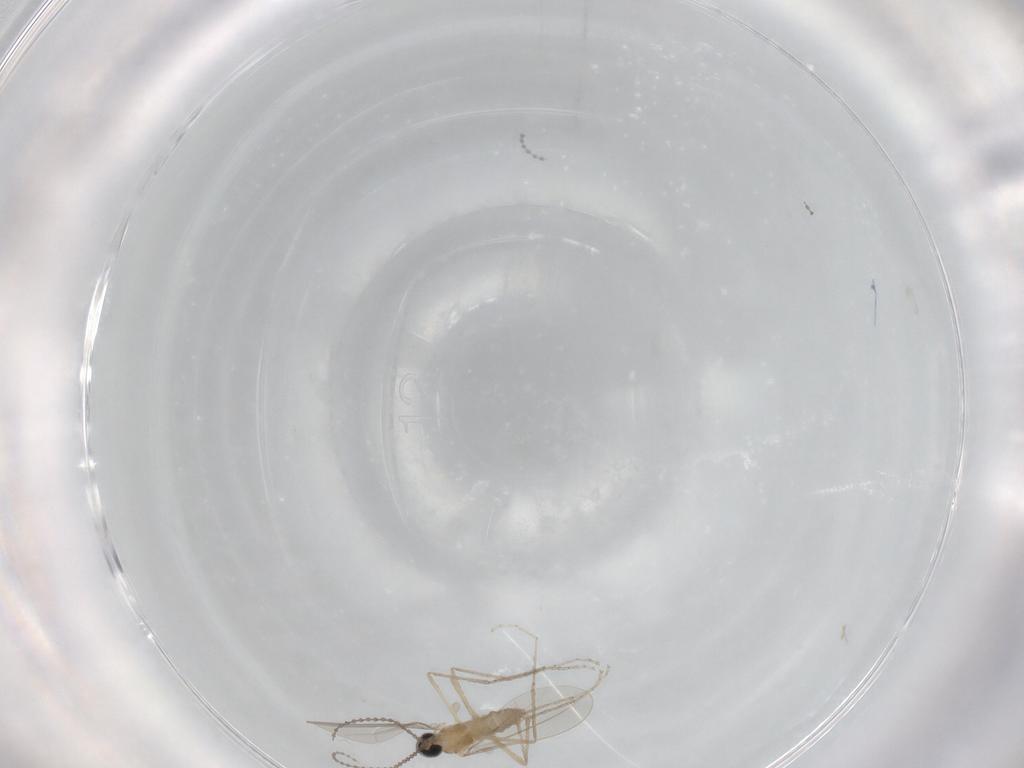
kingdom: Animalia
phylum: Arthropoda
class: Insecta
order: Diptera
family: Cecidomyiidae
